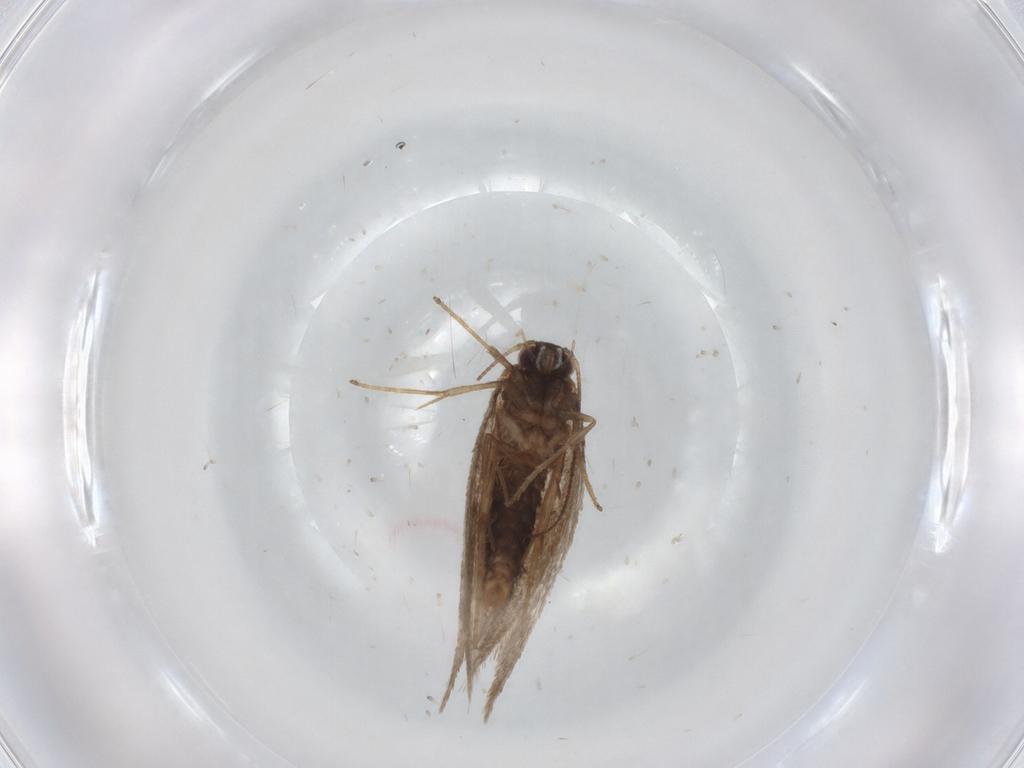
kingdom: Animalia
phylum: Arthropoda
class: Insecta
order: Lepidoptera
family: Nepticulidae
